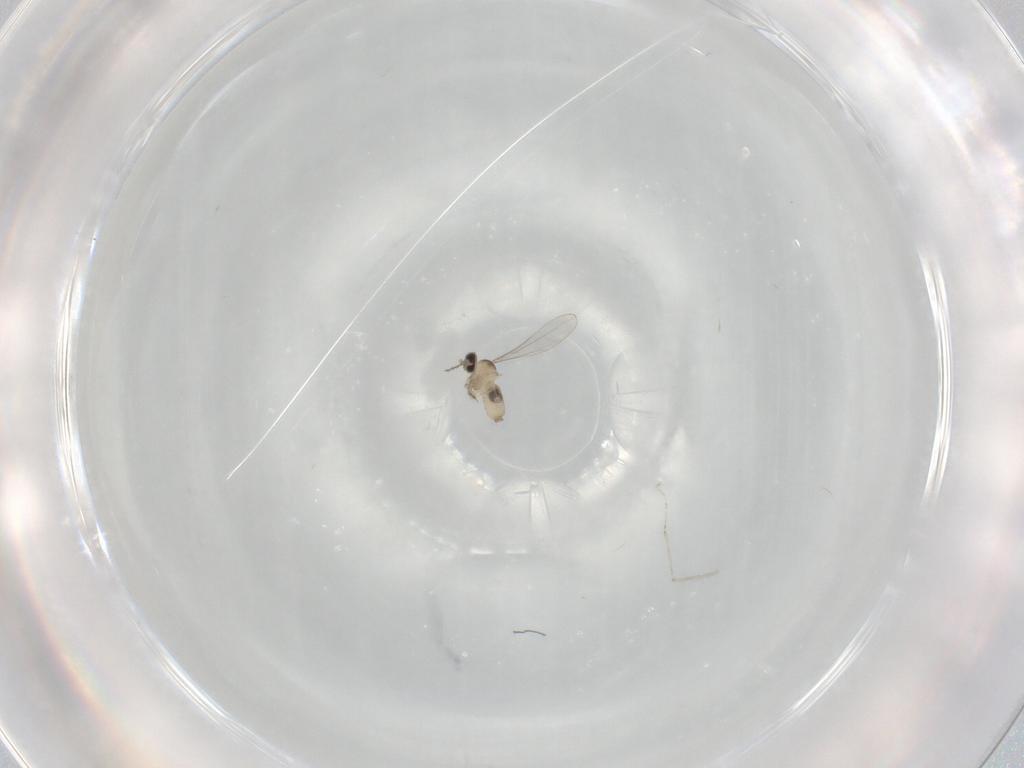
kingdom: Animalia
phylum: Arthropoda
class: Insecta
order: Diptera
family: Cecidomyiidae
